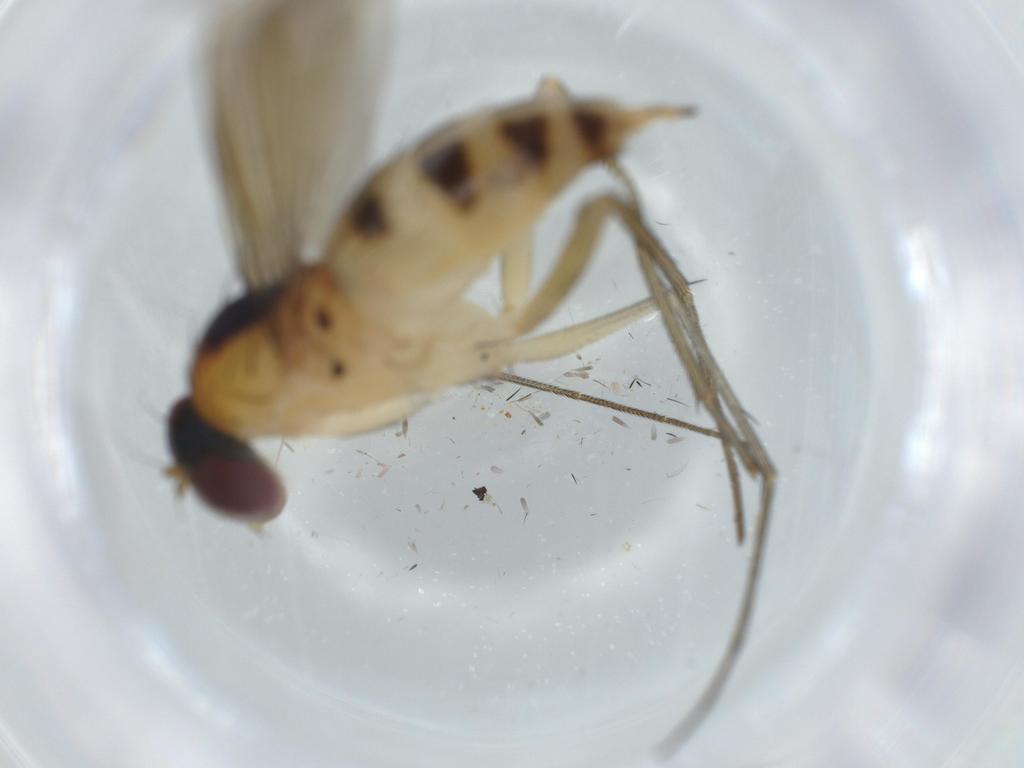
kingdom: Animalia
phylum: Arthropoda
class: Insecta
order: Diptera
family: Dolichopodidae
